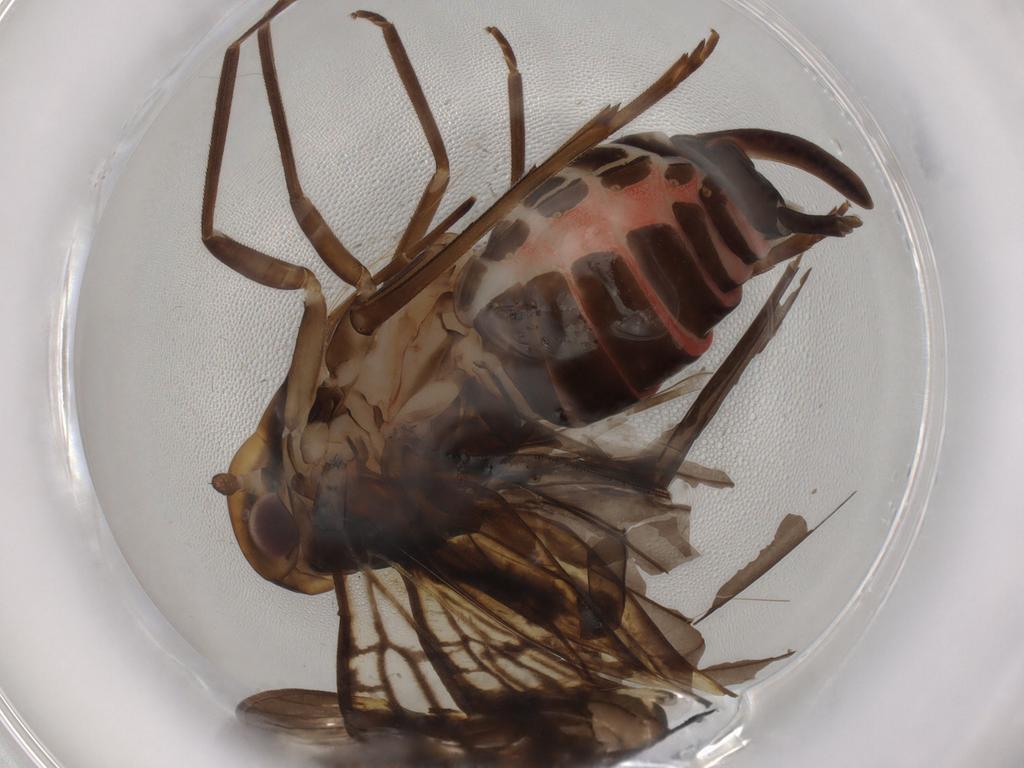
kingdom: Animalia
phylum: Arthropoda
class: Insecta
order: Hemiptera
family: Cixiidae
